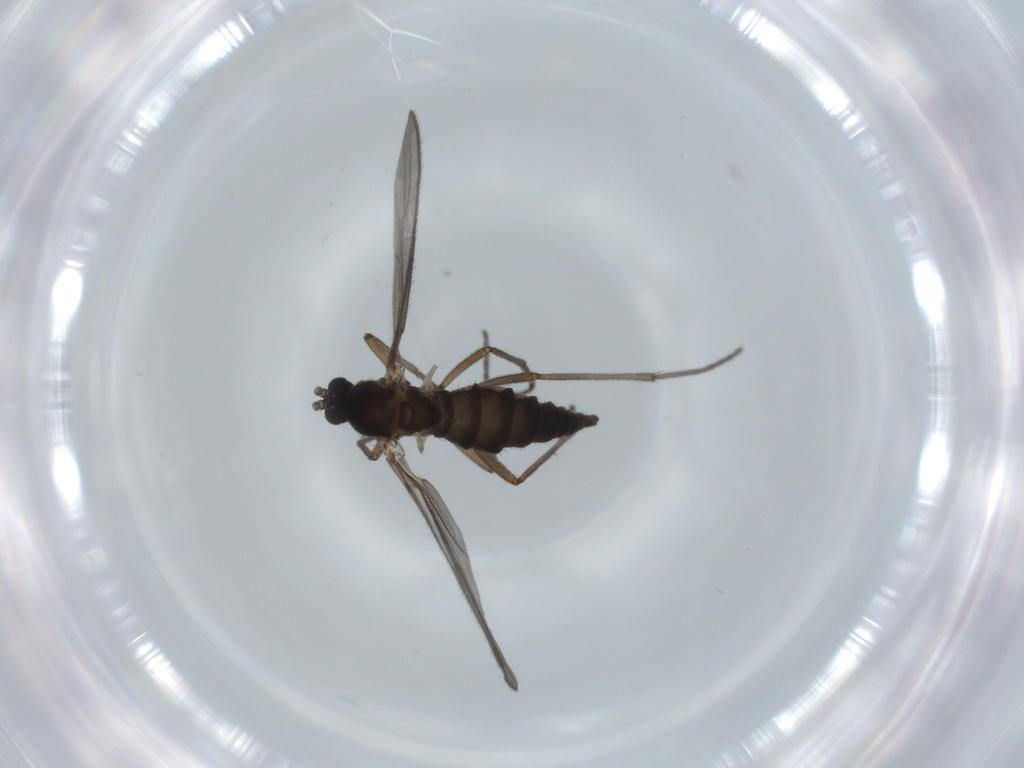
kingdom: Animalia
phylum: Arthropoda
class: Insecta
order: Diptera
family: Sciaridae
